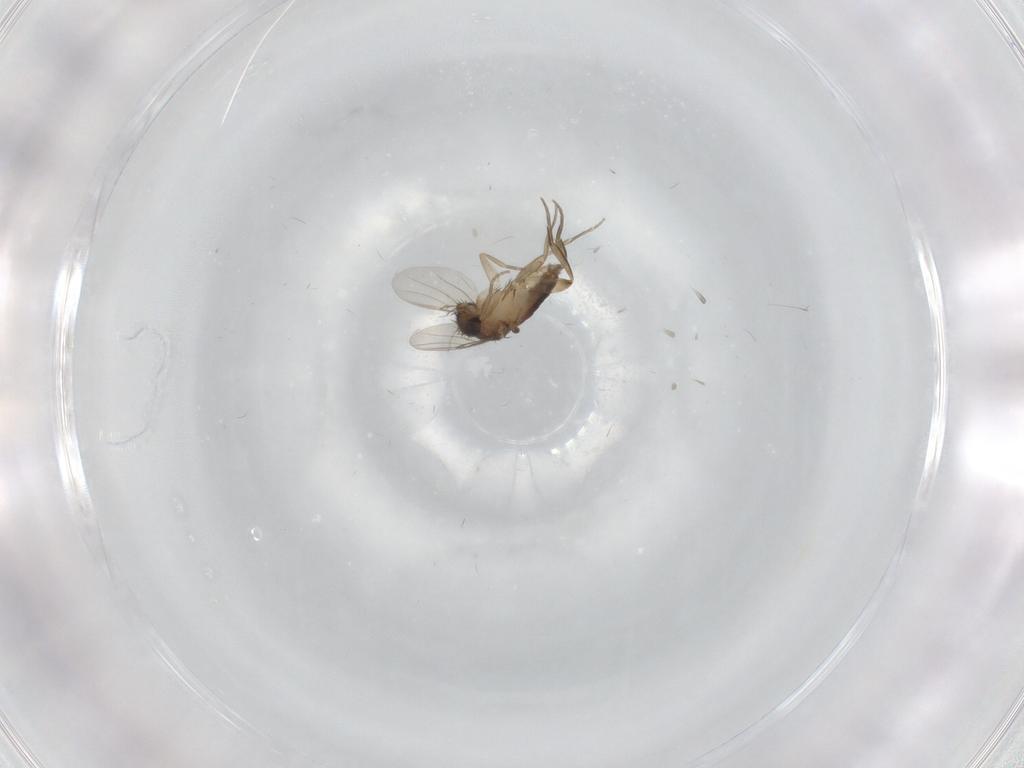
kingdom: Animalia
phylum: Arthropoda
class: Insecta
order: Diptera
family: Phoridae
